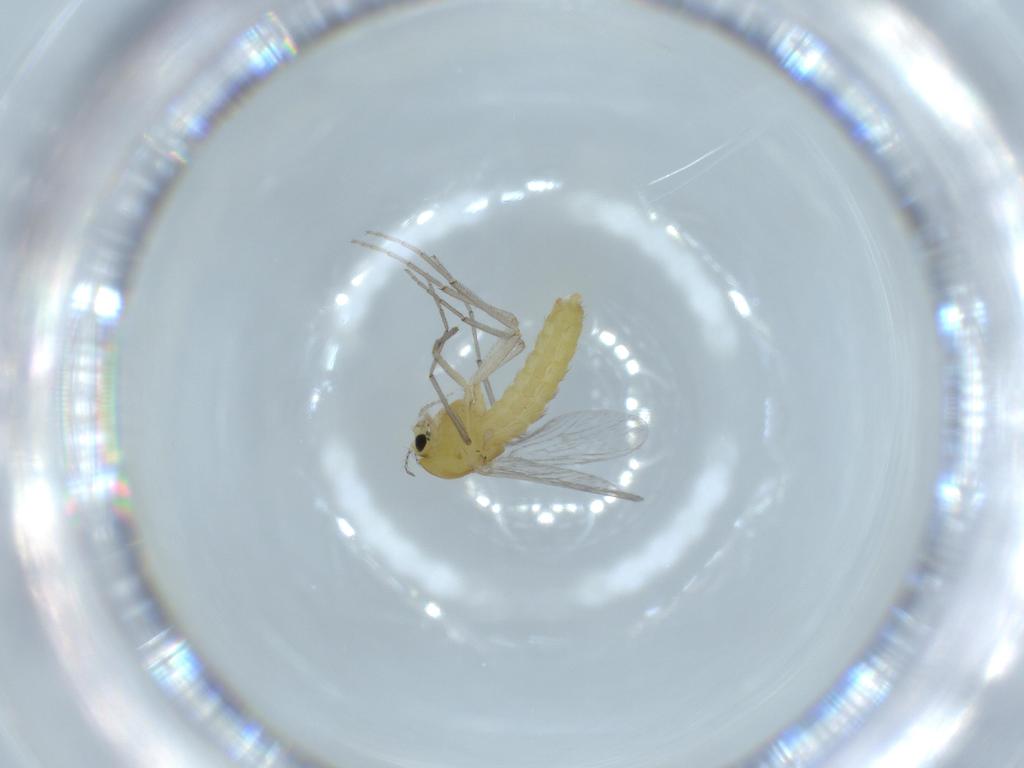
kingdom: Animalia
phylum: Arthropoda
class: Insecta
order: Diptera
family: Chironomidae
